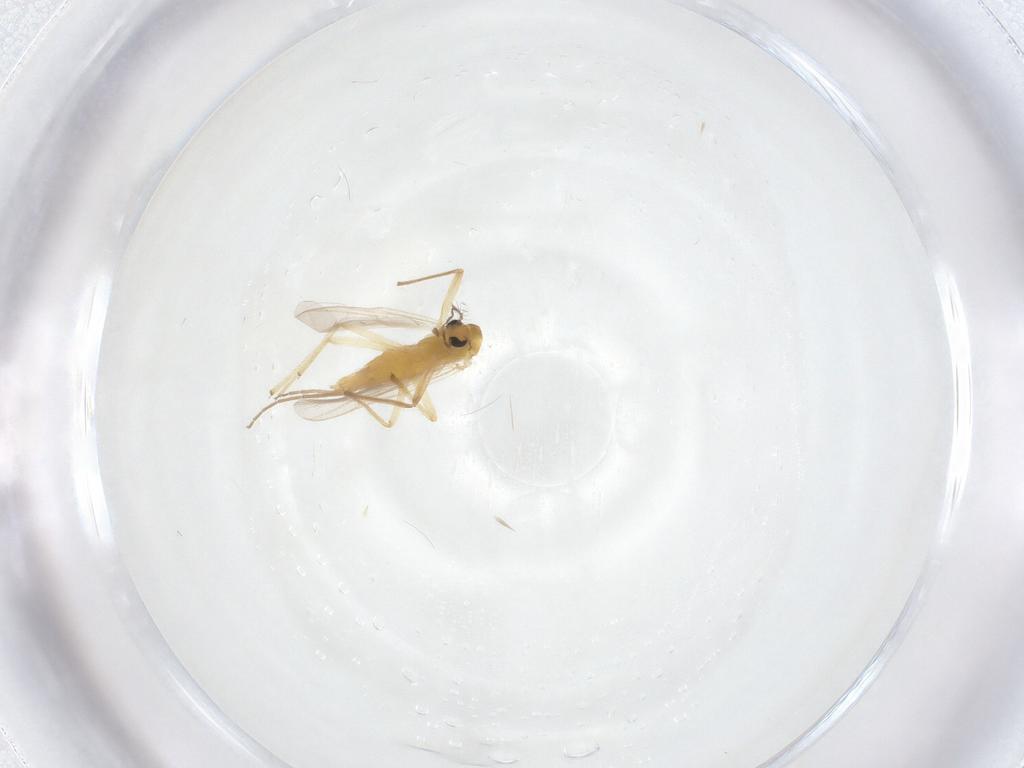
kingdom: Animalia
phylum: Arthropoda
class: Insecta
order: Diptera
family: Chironomidae
